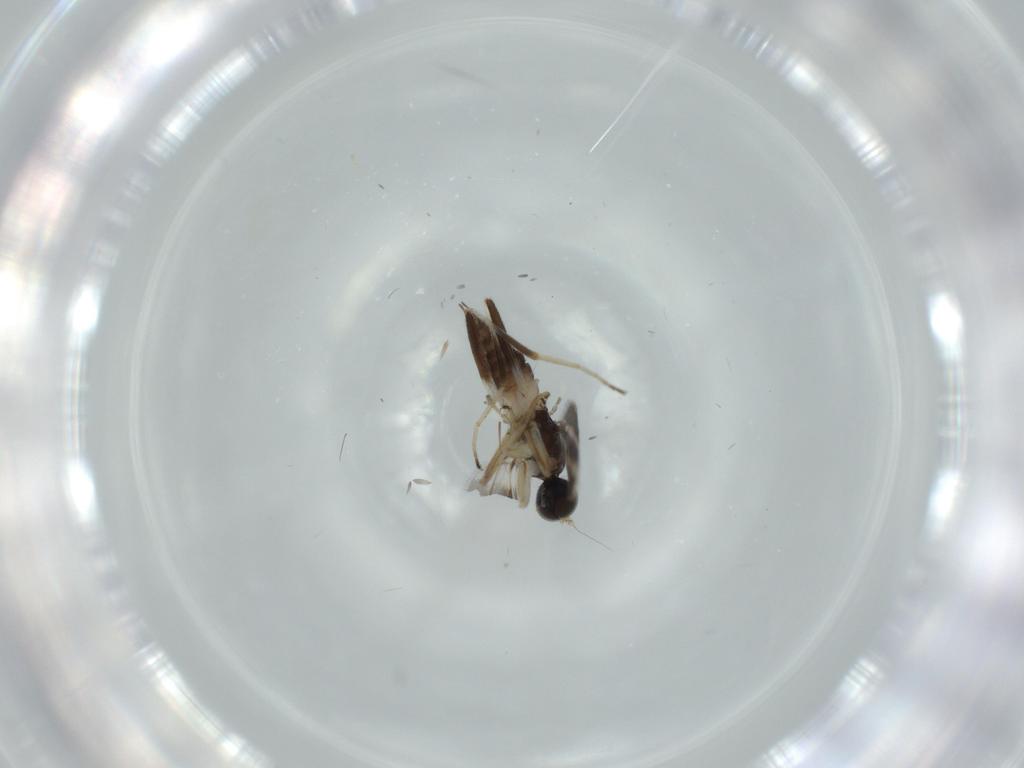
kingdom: Animalia
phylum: Arthropoda
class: Insecta
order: Diptera
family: Hybotidae
